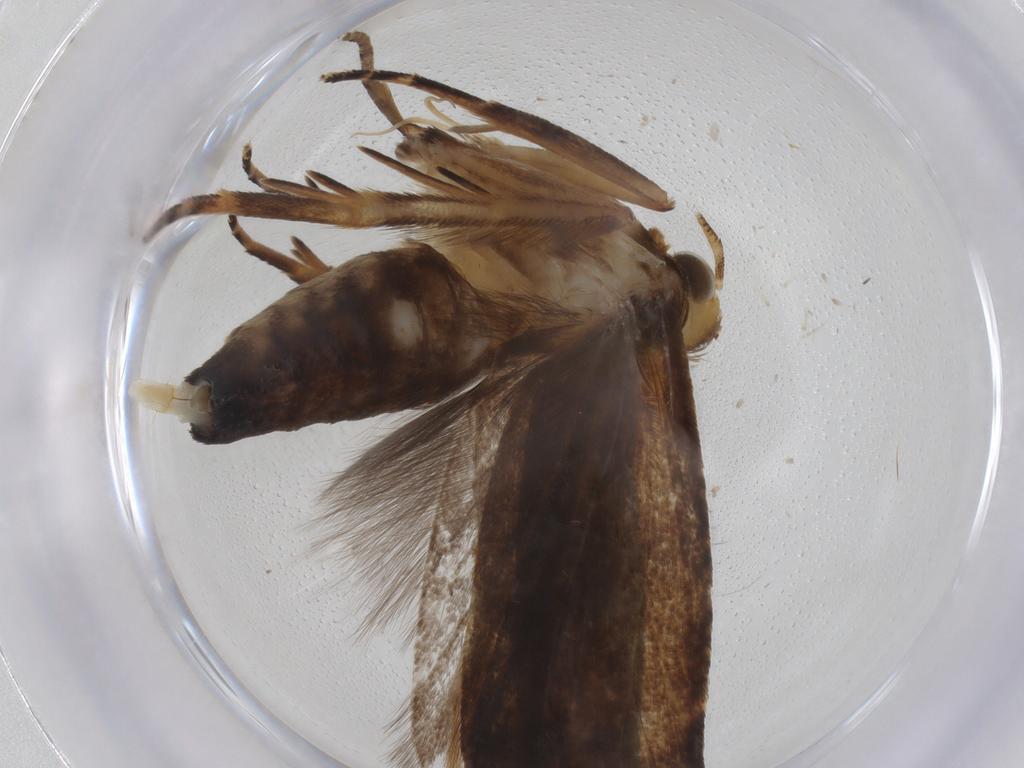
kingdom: Animalia
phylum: Arthropoda
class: Insecta
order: Lepidoptera
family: Gelechiidae
